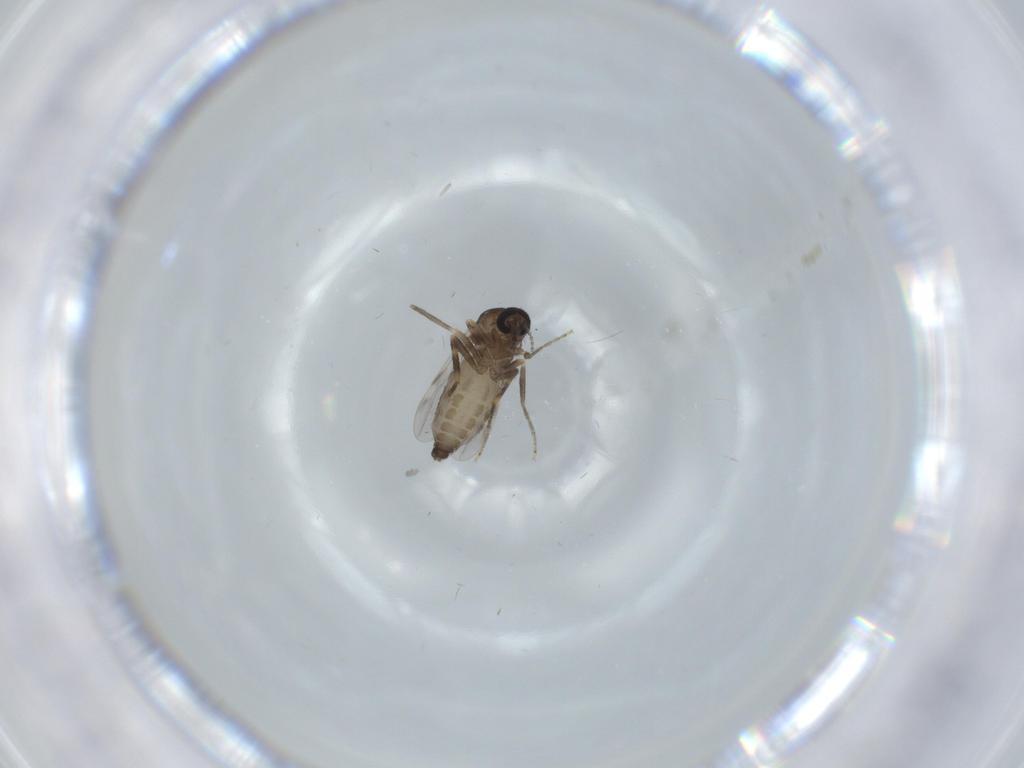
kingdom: Animalia
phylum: Arthropoda
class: Insecta
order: Diptera
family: Ceratopogonidae
